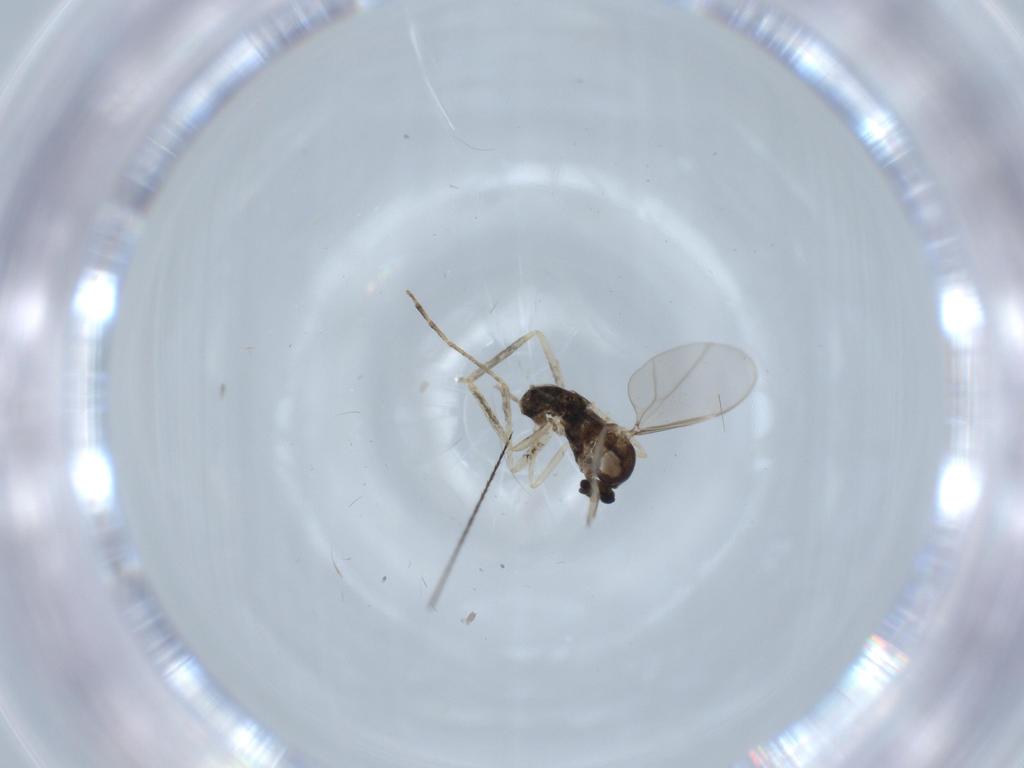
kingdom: Animalia
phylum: Arthropoda
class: Insecta
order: Diptera
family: Cecidomyiidae
